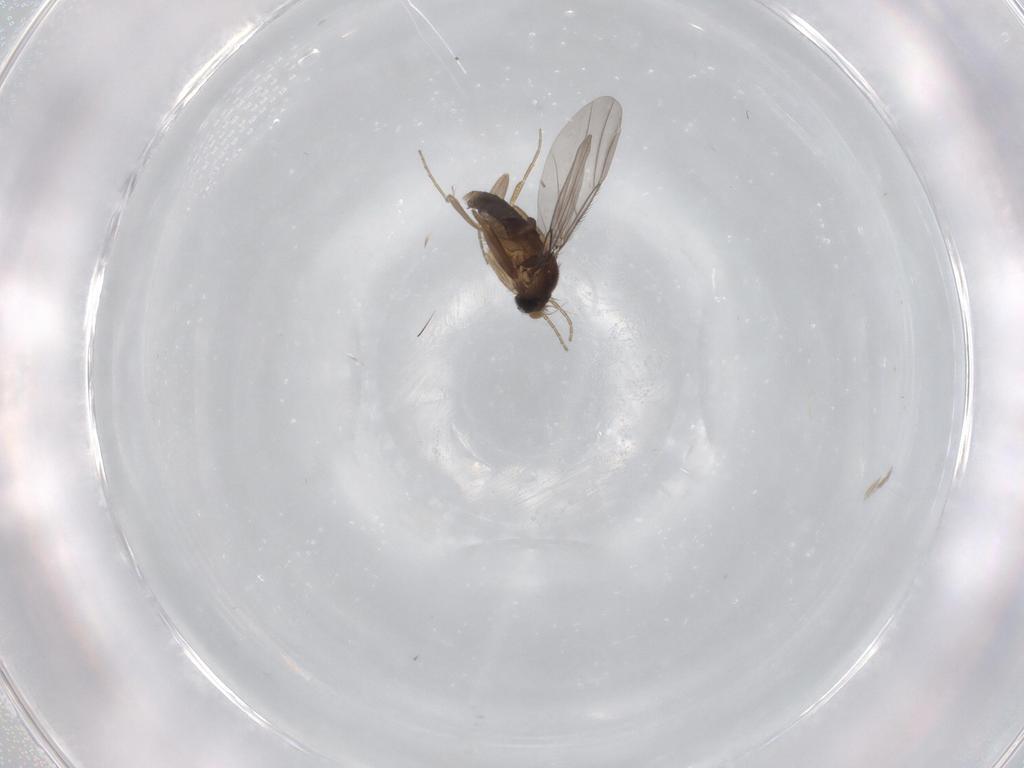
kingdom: Animalia
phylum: Arthropoda
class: Insecta
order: Diptera
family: Phoridae
